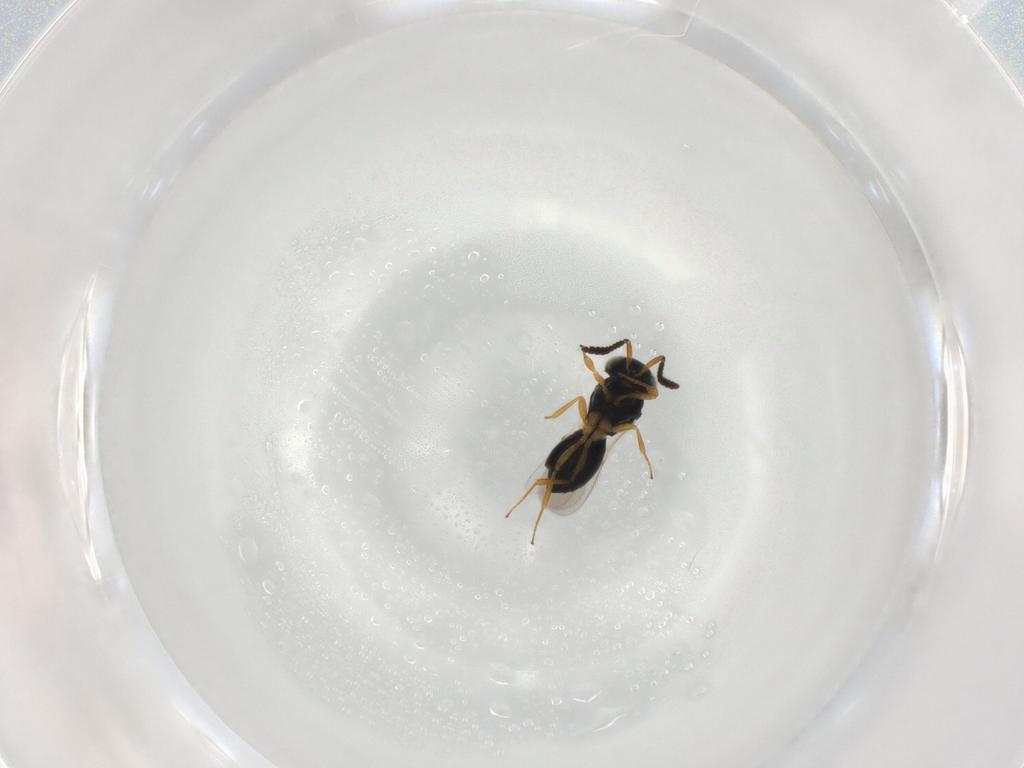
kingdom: Animalia
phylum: Arthropoda
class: Insecta
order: Hymenoptera
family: Scelionidae
